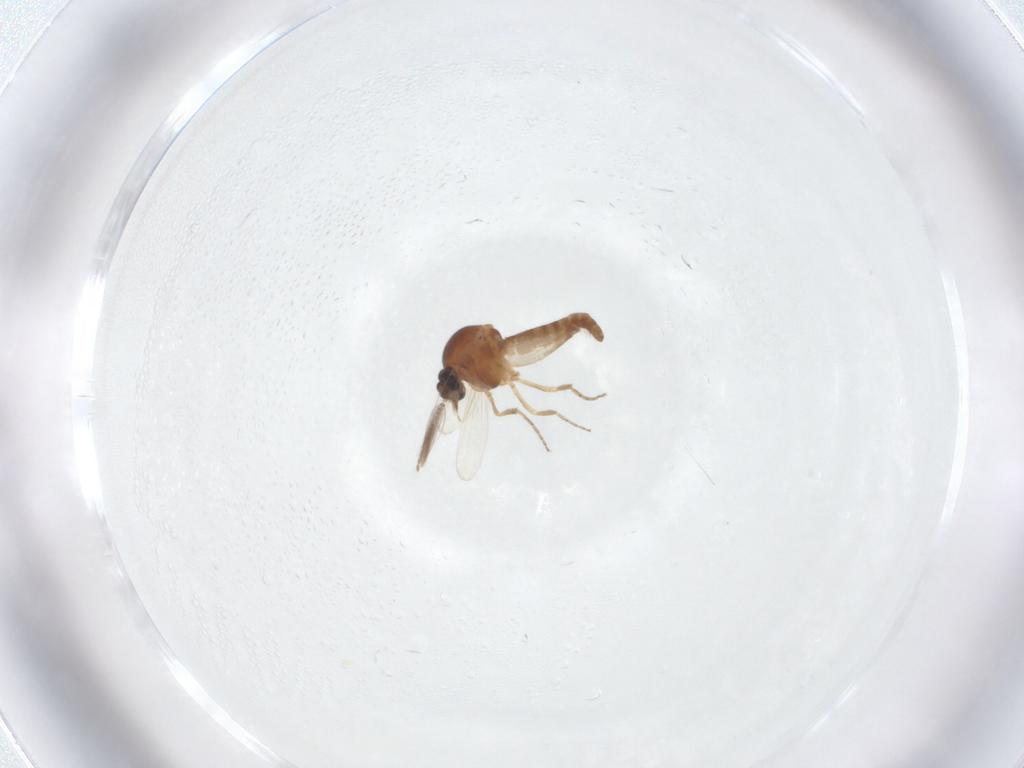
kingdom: Animalia
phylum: Arthropoda
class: Insecta
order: Diptera
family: Ceratopogonidae
